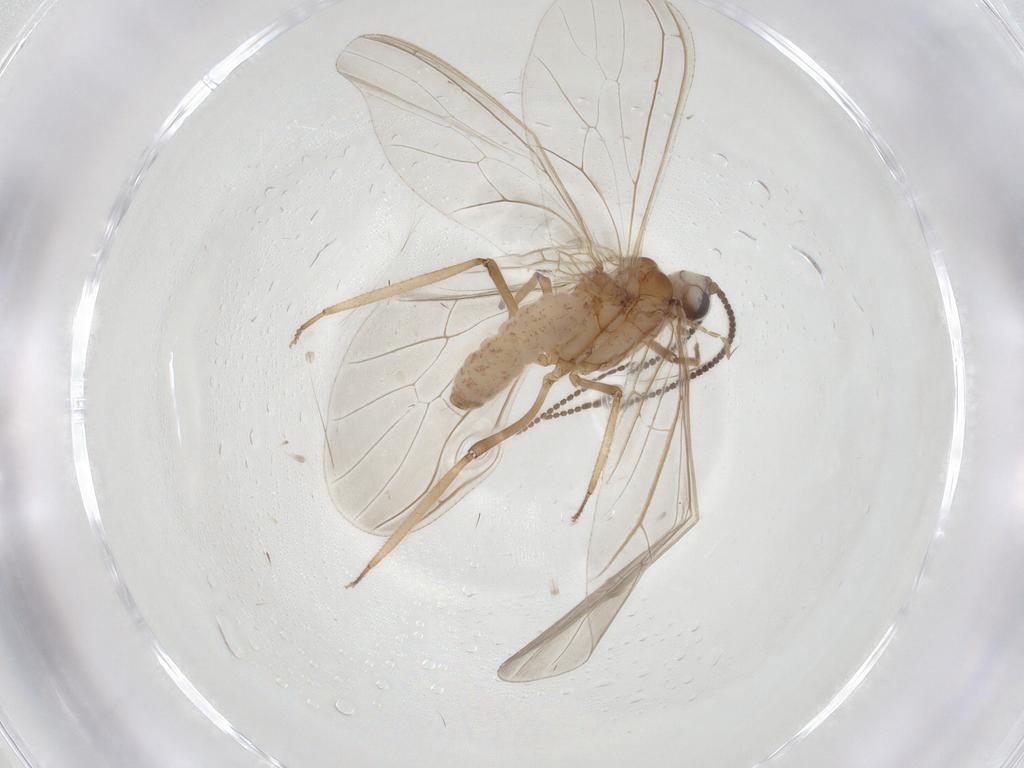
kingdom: Animalia
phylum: Arthropoda
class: Insecta
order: Neuroptera
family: Coniopterygidae
